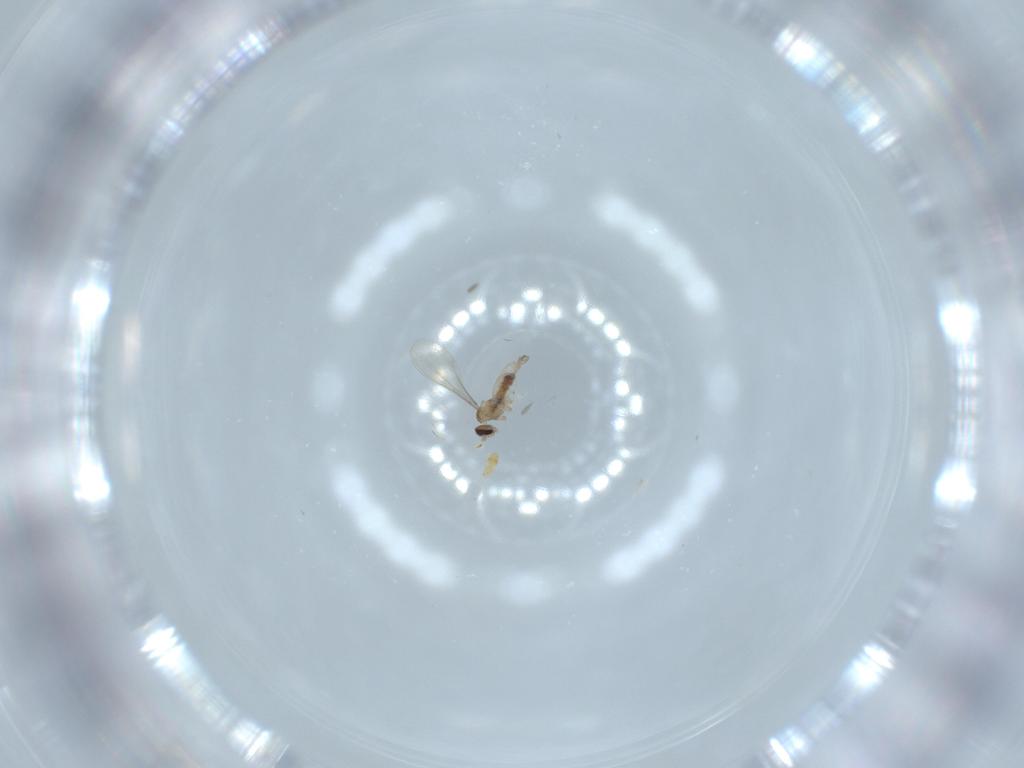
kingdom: Animalia
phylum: Arthropoda
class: Insecta
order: Diptera
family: Cecidomyiidae
